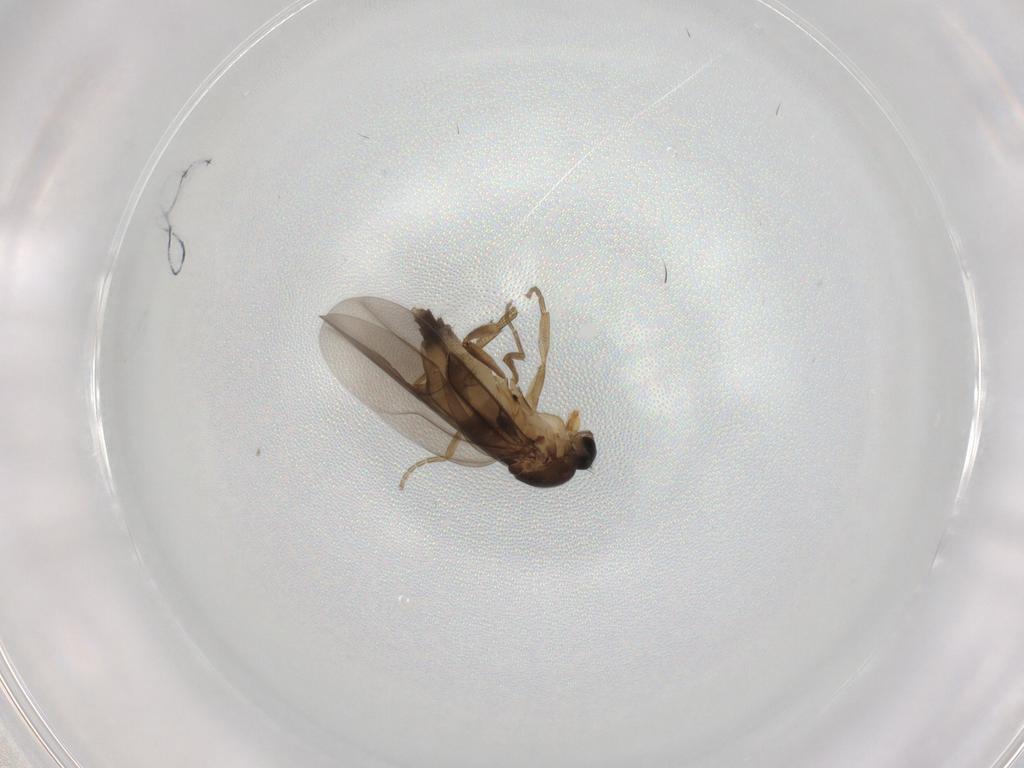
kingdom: Animalia
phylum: Arthropoda
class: Insecta
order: Diptera
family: Phoridae
